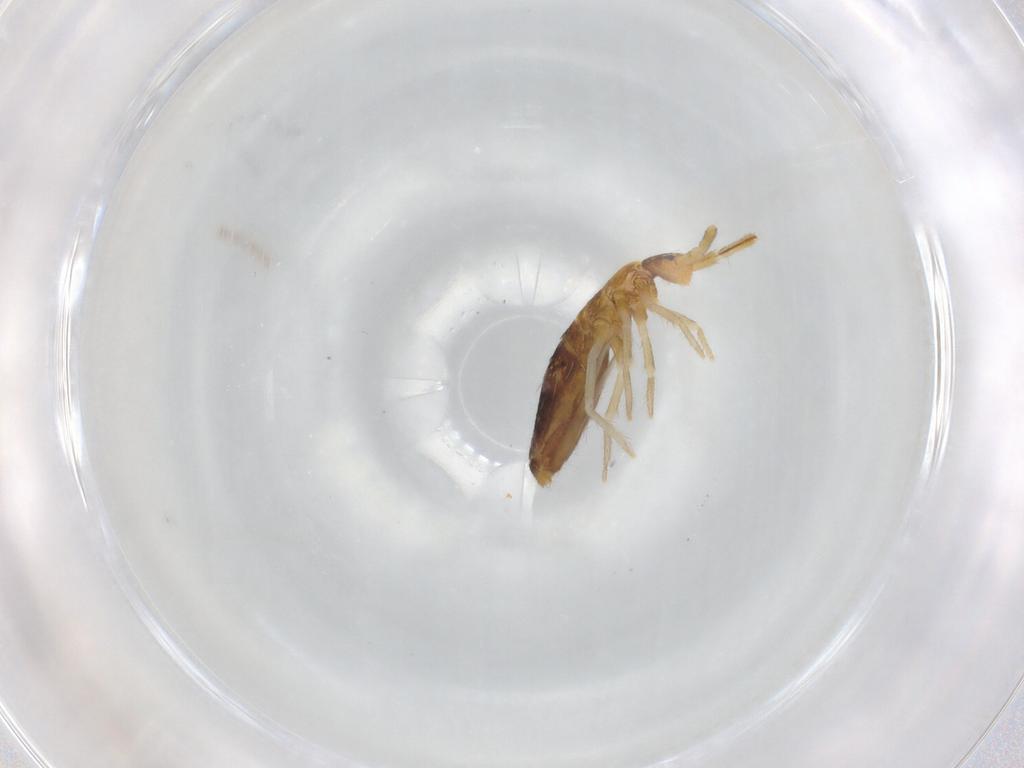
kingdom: Animalia
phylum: Arthropoda
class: Collembola
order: Entomobryomorpha
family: Entomobryidae
